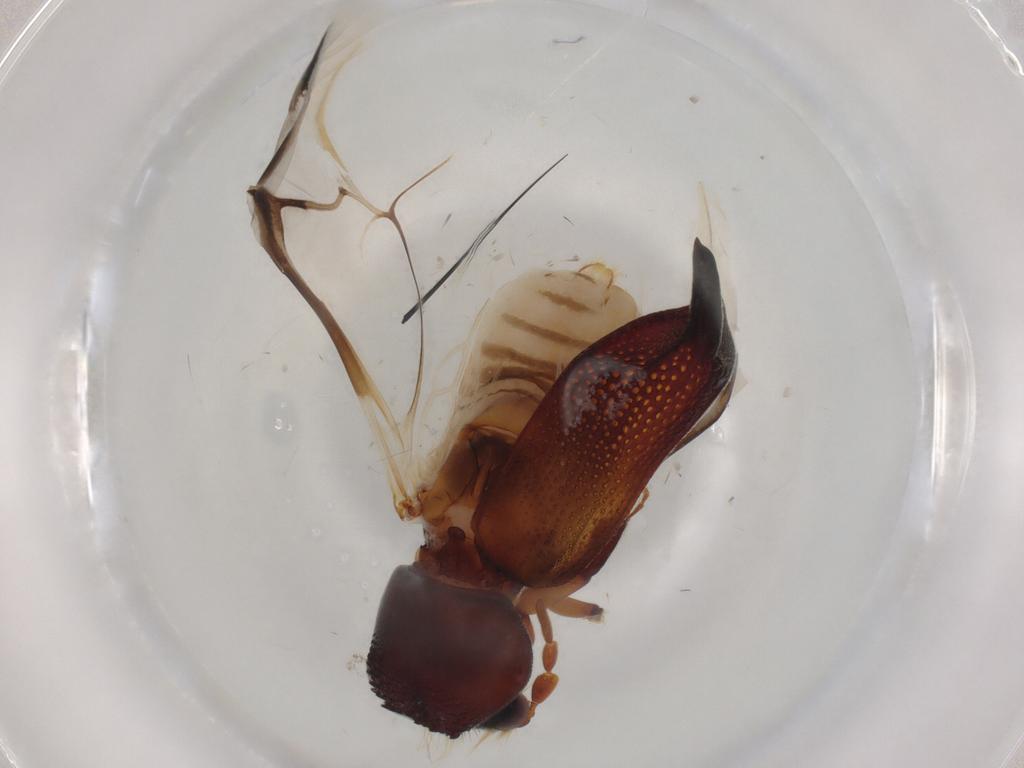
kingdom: Animalia
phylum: Arthropoda
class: Insecta
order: Coleoptera
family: Bostrichidae
